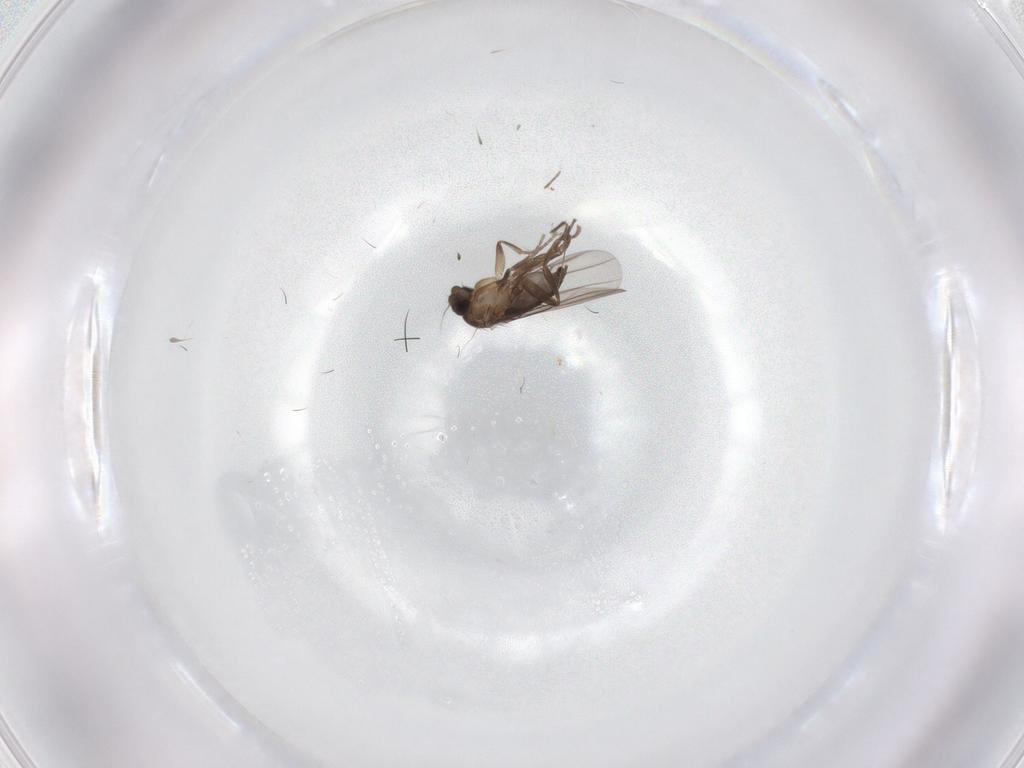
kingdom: Animalia
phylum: Arthropoda
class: Insecta
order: Diptera
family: Phoridae
